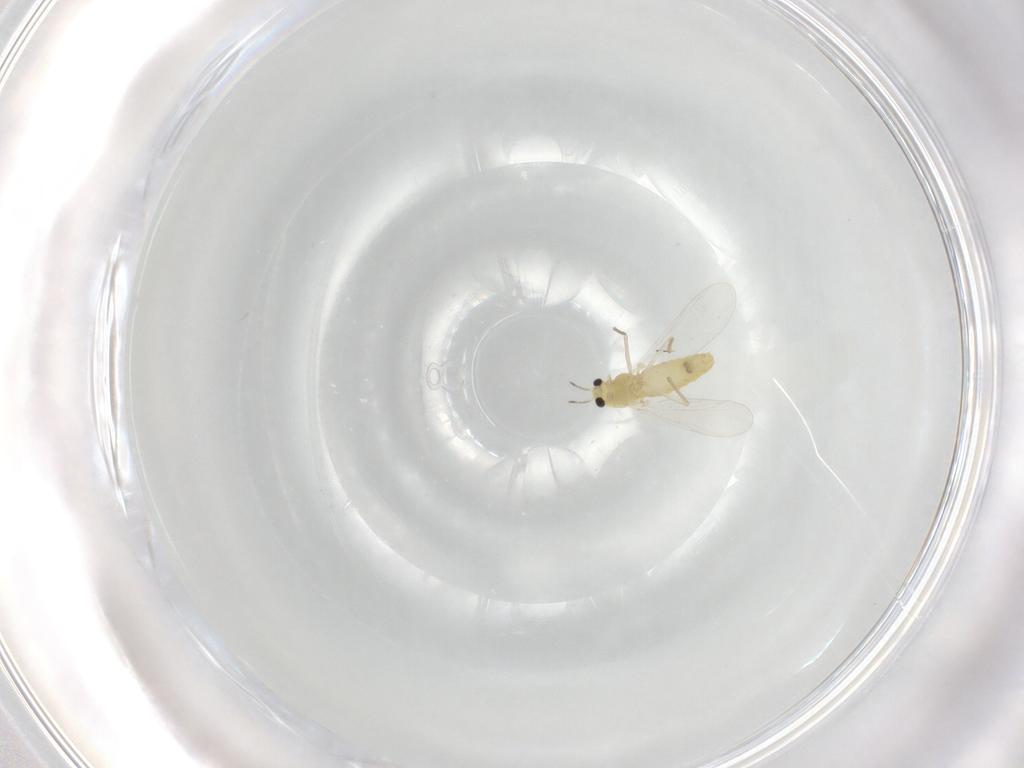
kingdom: Animalia
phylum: Arthropoda
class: Insecta
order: Diptera
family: Chironomidae
